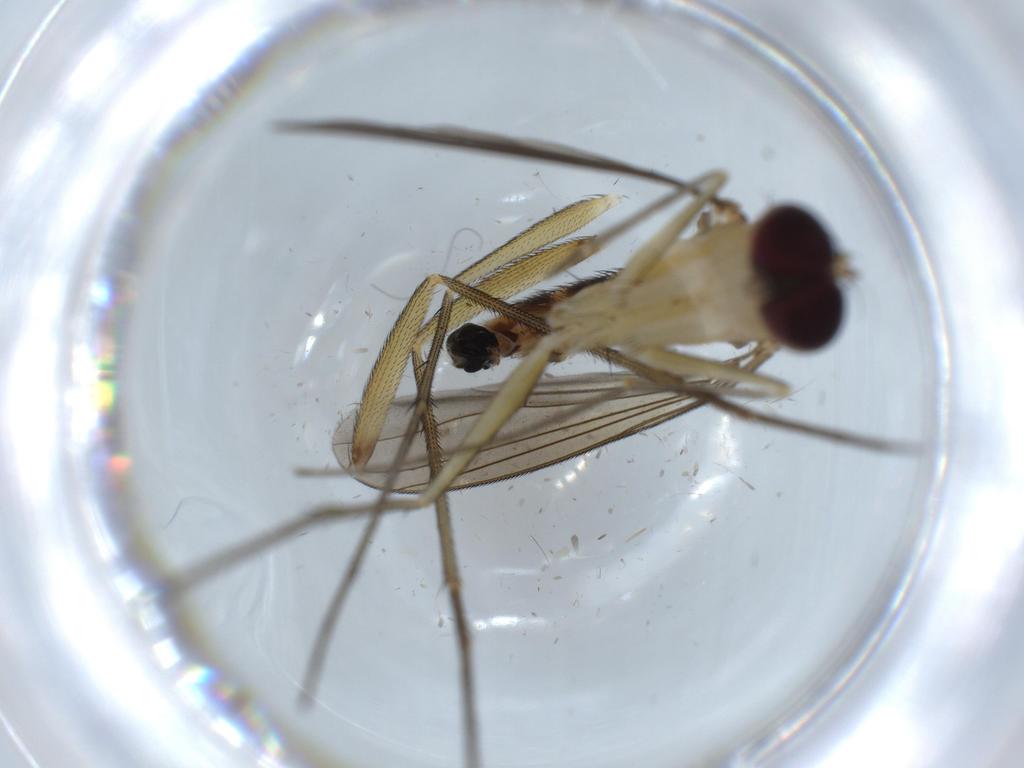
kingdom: Animalia
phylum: Arthropoda
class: Insecta
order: Diptera
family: Dolichopodidae
